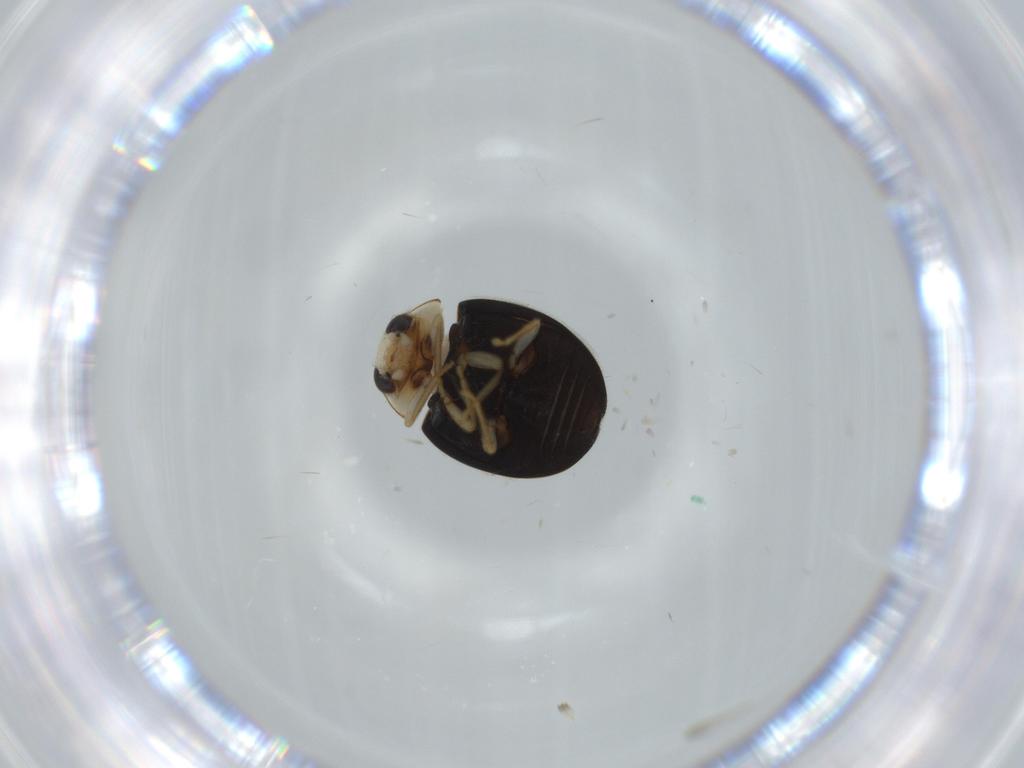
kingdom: Animalia
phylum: Arthropoda
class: Insecta
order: Coleoptera
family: Coccinellidae
